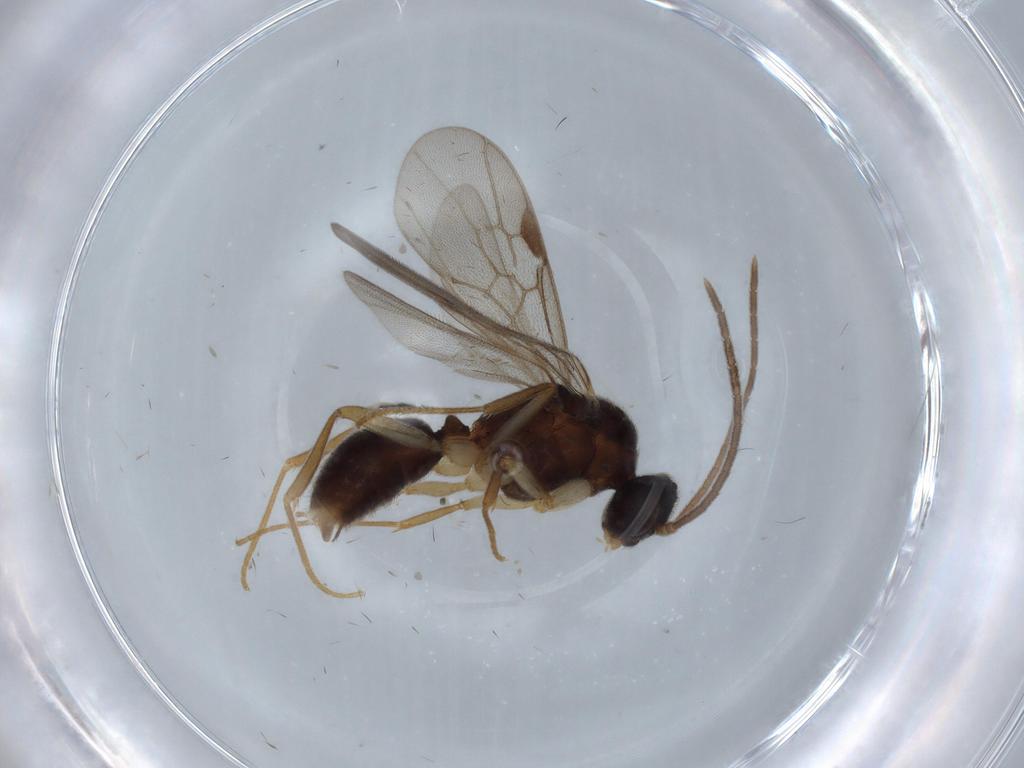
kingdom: Animalia
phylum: Arthropoda
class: Insecta
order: Hymenoptera
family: Formicidae
